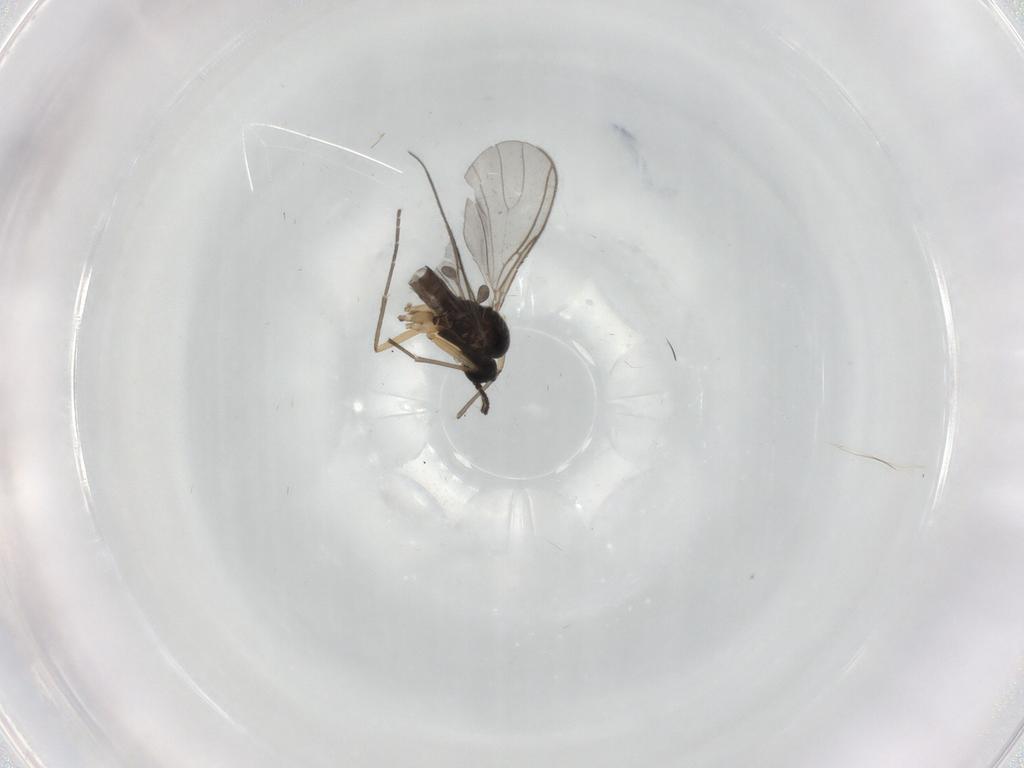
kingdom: Animalia
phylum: Arthropoda
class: Insecta
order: Diptera
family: Sciaridae
